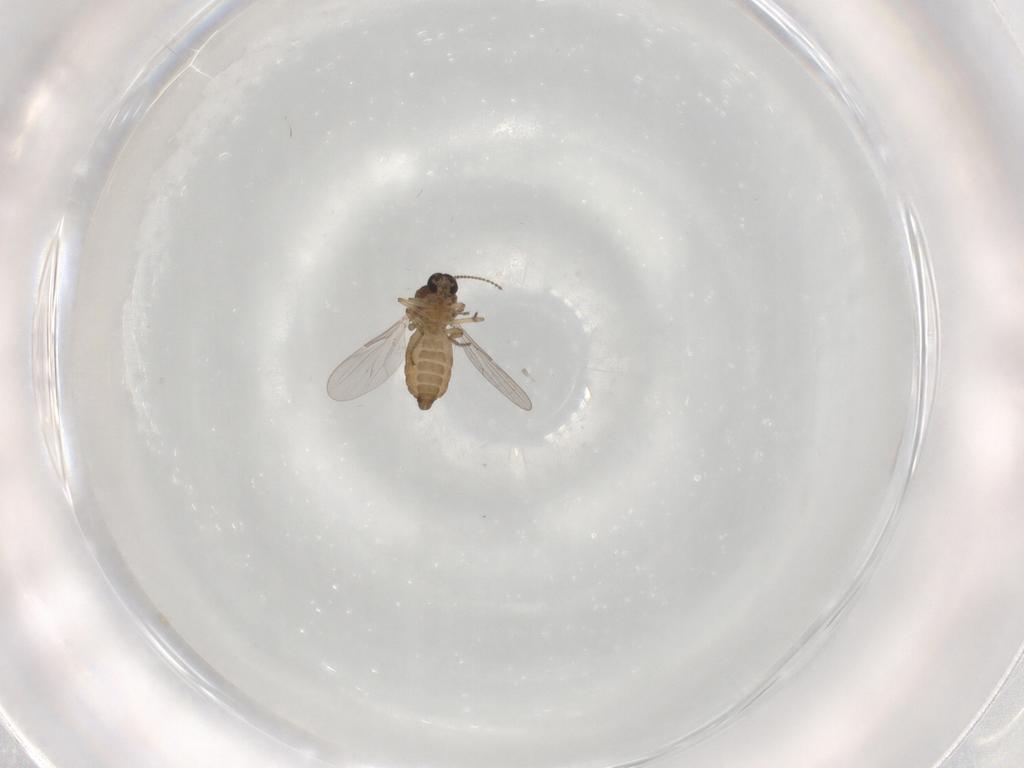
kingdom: Animalia
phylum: Arthropoda
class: Insecta
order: Diptera
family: Ceratopogonidae
